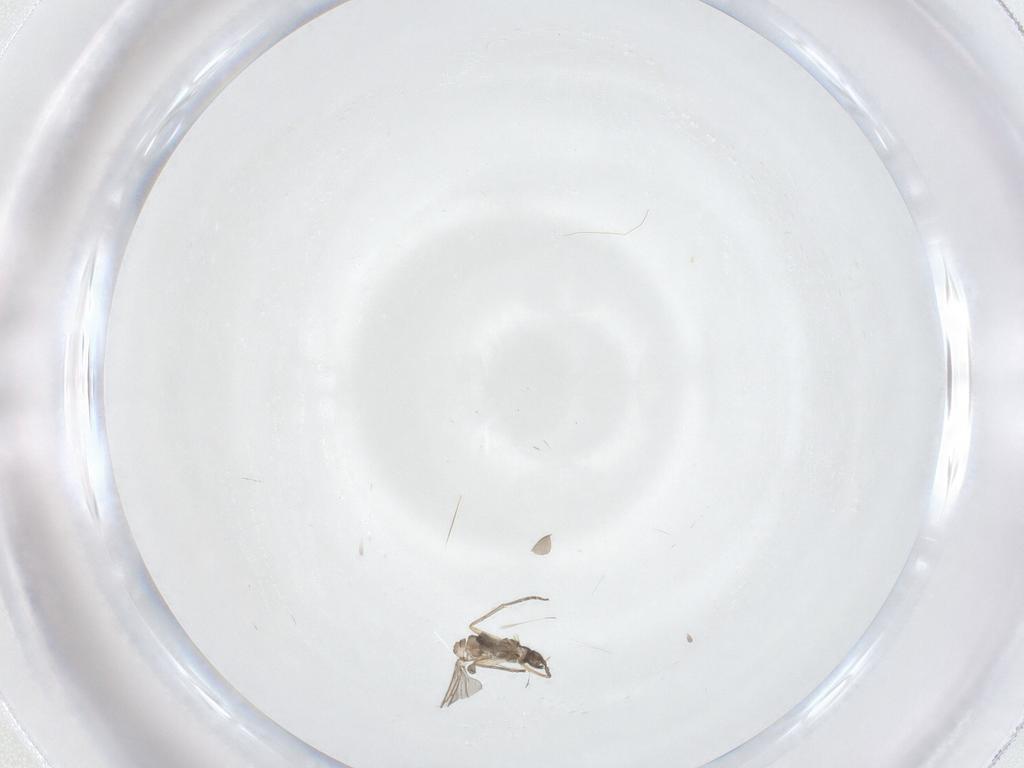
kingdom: Animalia
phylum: Arthropoda
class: Insecta
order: Diptera
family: Sciaridae
